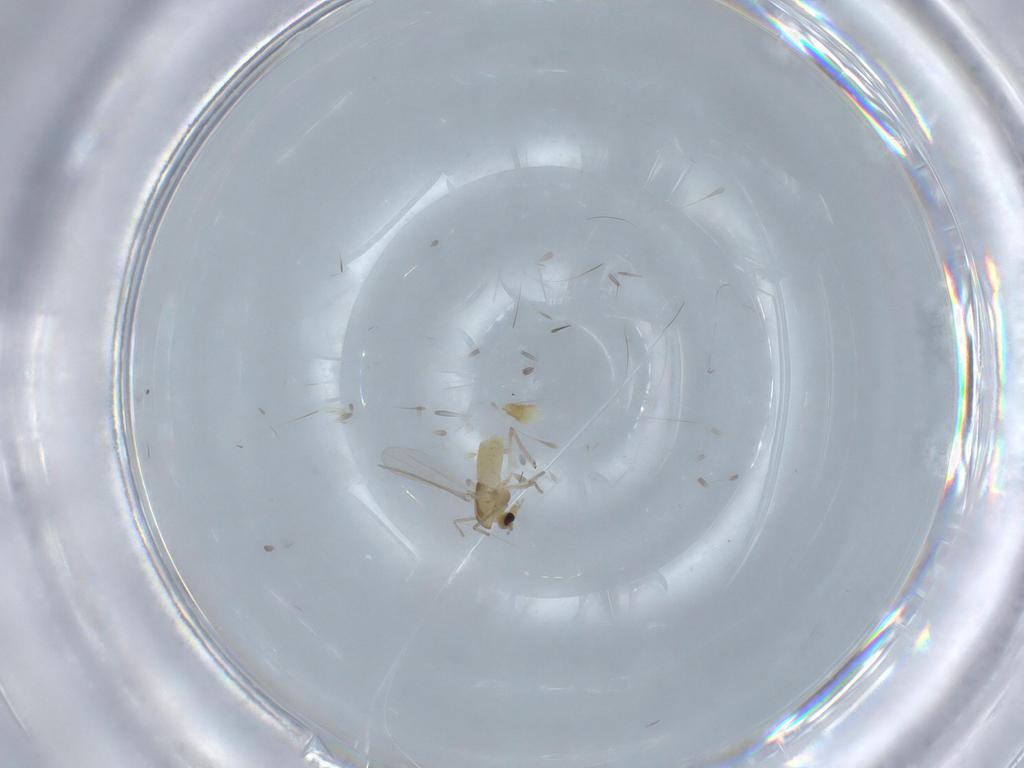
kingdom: Animalia
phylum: Arthropoda
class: Insecta
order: Diptera
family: Chironomidae
